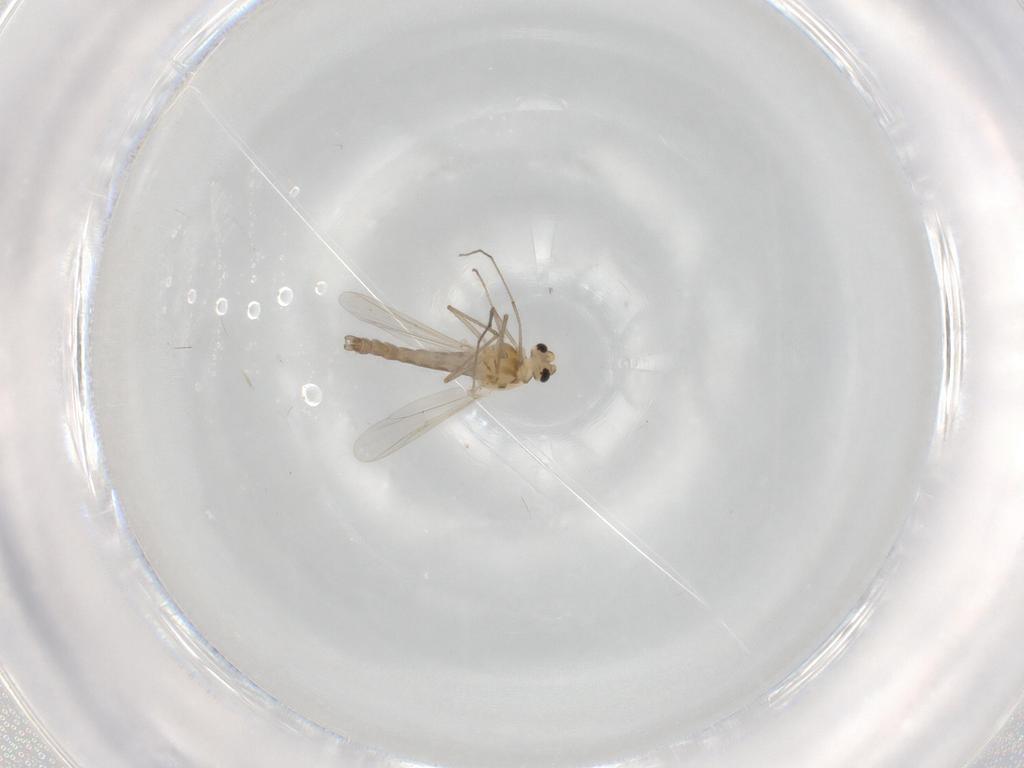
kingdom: Animalia
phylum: Arthropoda
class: Insecta
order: Diptera
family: Chironomidae
